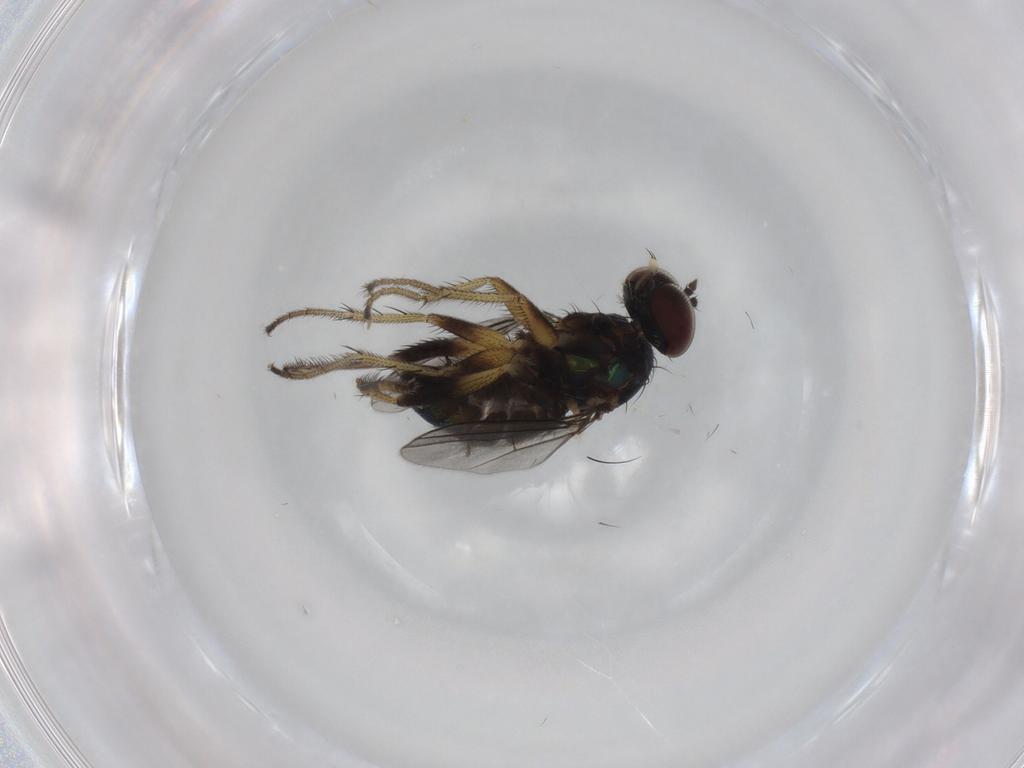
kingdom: Animalia
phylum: Arthropoda
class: Insecta
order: Diptera
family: Dolichopodidae
